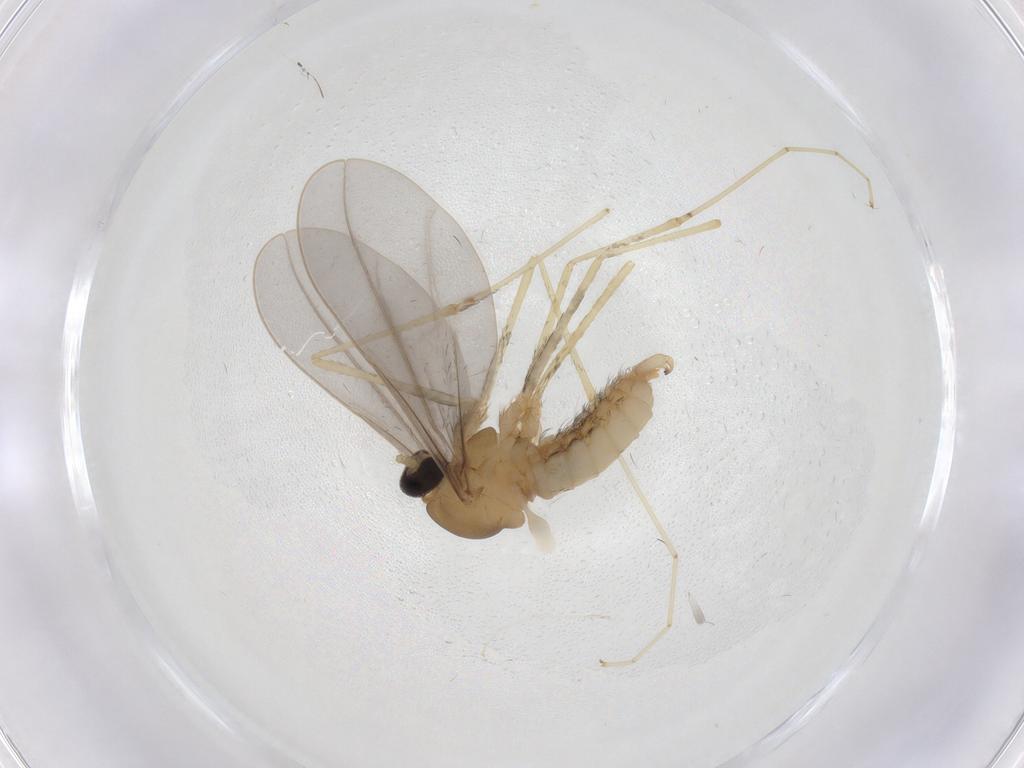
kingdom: Animalia
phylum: Arthropoda
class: Insecta
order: Diptera
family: Cecidomyiidae
